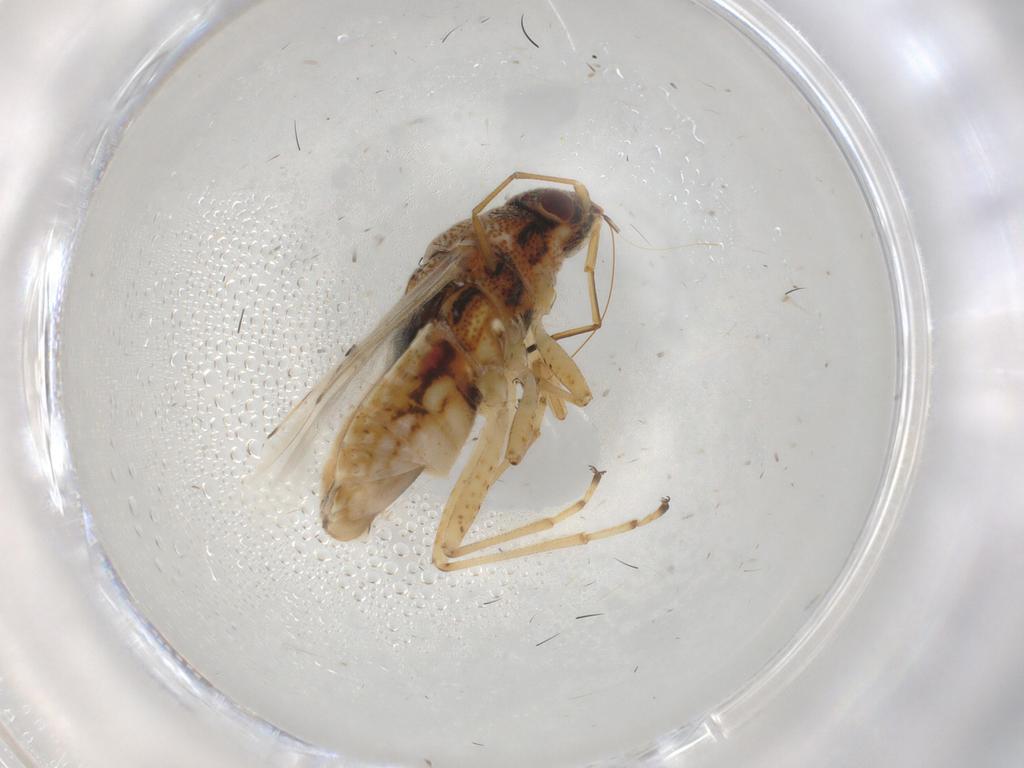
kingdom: Animalia
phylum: Arthropoda
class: Insecta
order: Hemiptera
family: Lygaeidae
